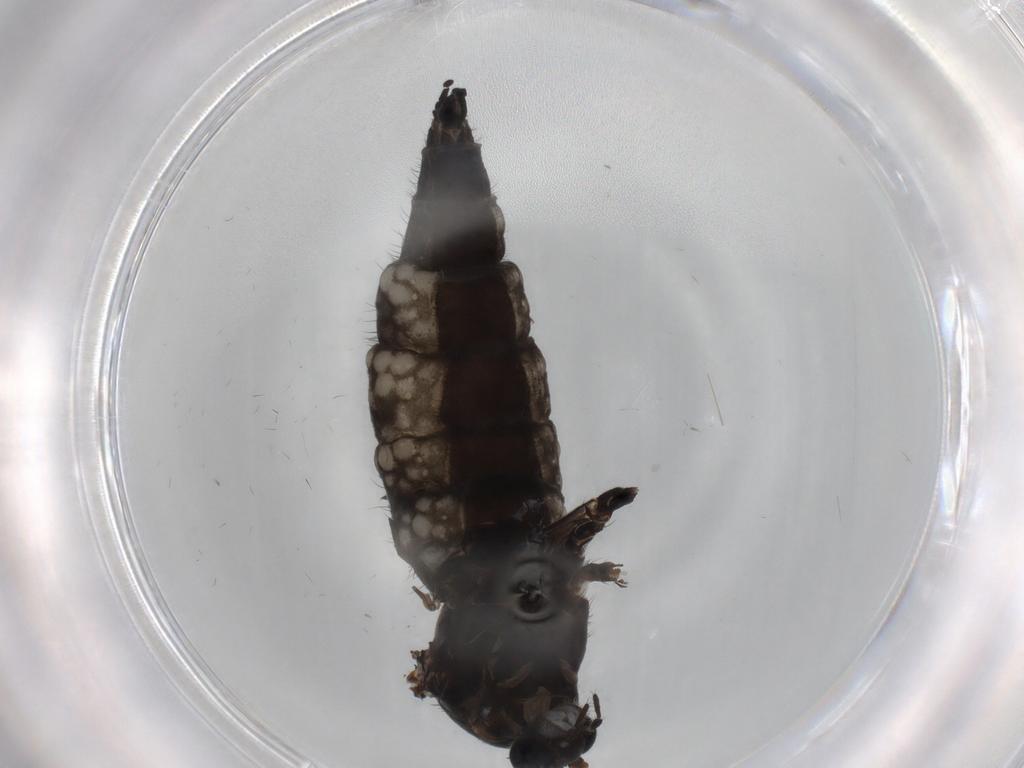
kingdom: Animalia
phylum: Arthropoda
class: Insecta
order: Diptera
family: Sciaridae
